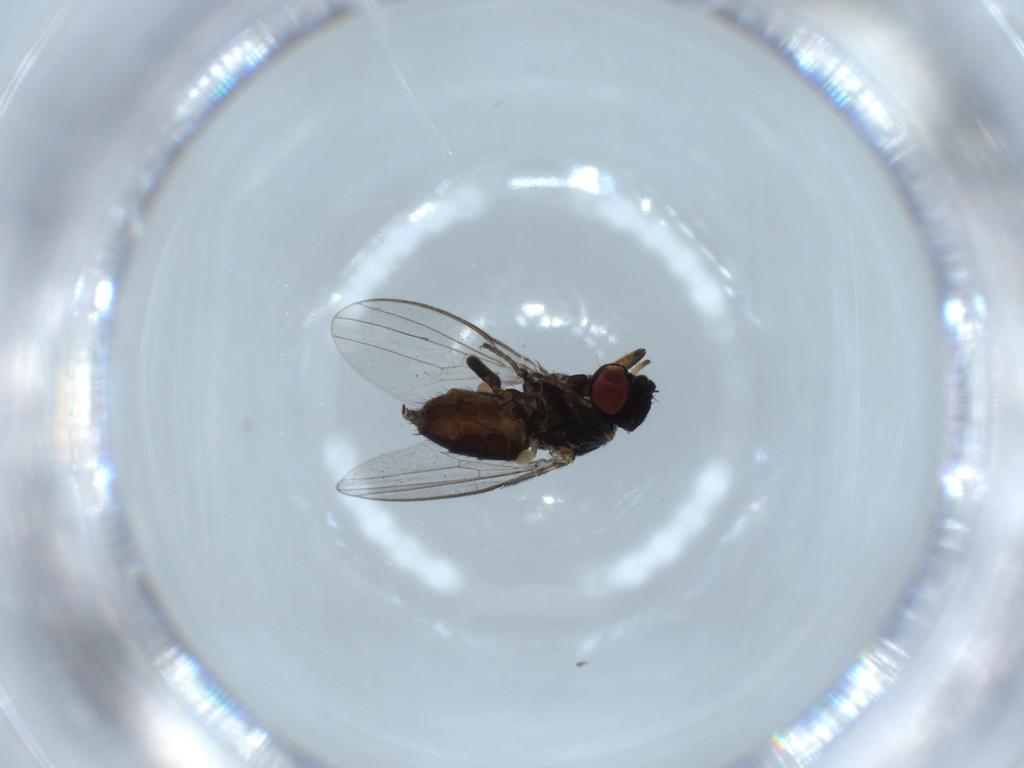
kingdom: Animalia
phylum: Arthropoda
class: Insecta
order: Diptera
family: Milichiidae
